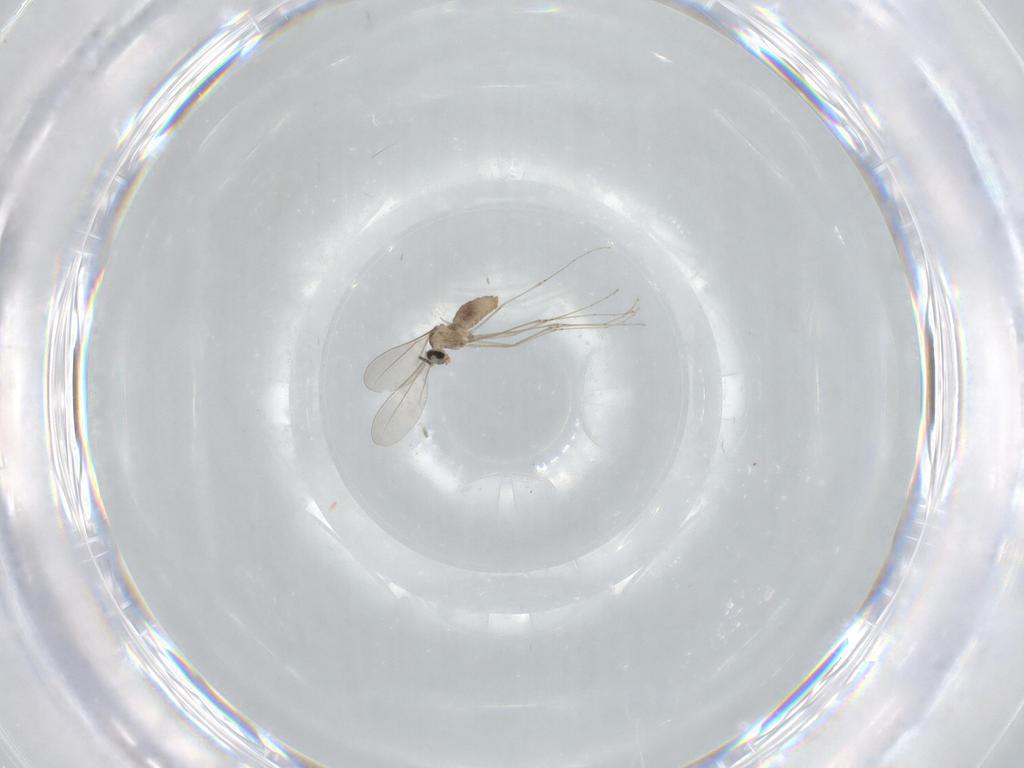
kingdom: Animalia
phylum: Arthropoda
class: Insecta
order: Diptera
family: Cecidomyiidae
